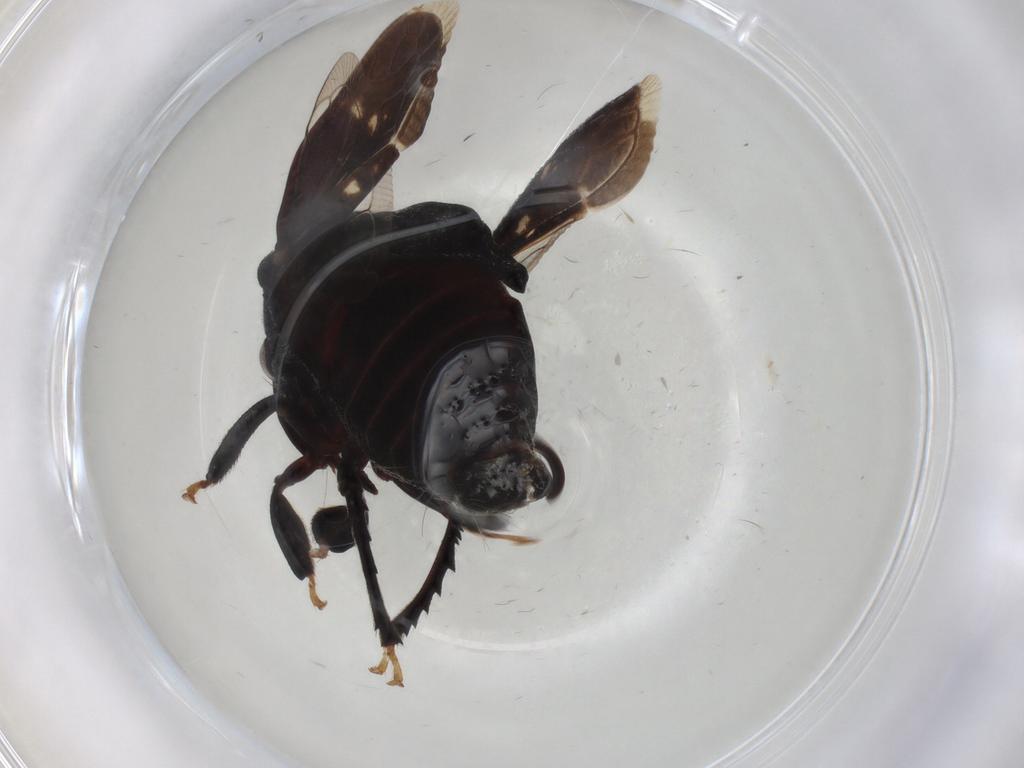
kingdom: Animalia
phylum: Arthropoda
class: Insecta
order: Hemiptera
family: Membracidae
